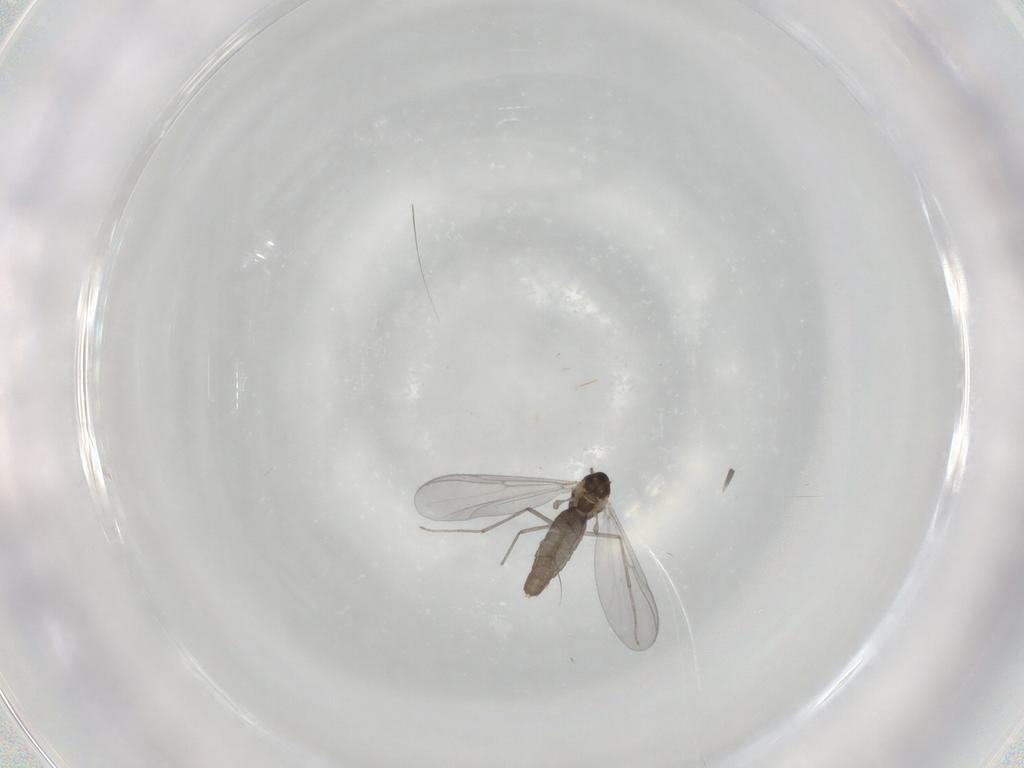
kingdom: Animalia
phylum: Arthropoda
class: Insecta
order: Diptera
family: Chironomidae
